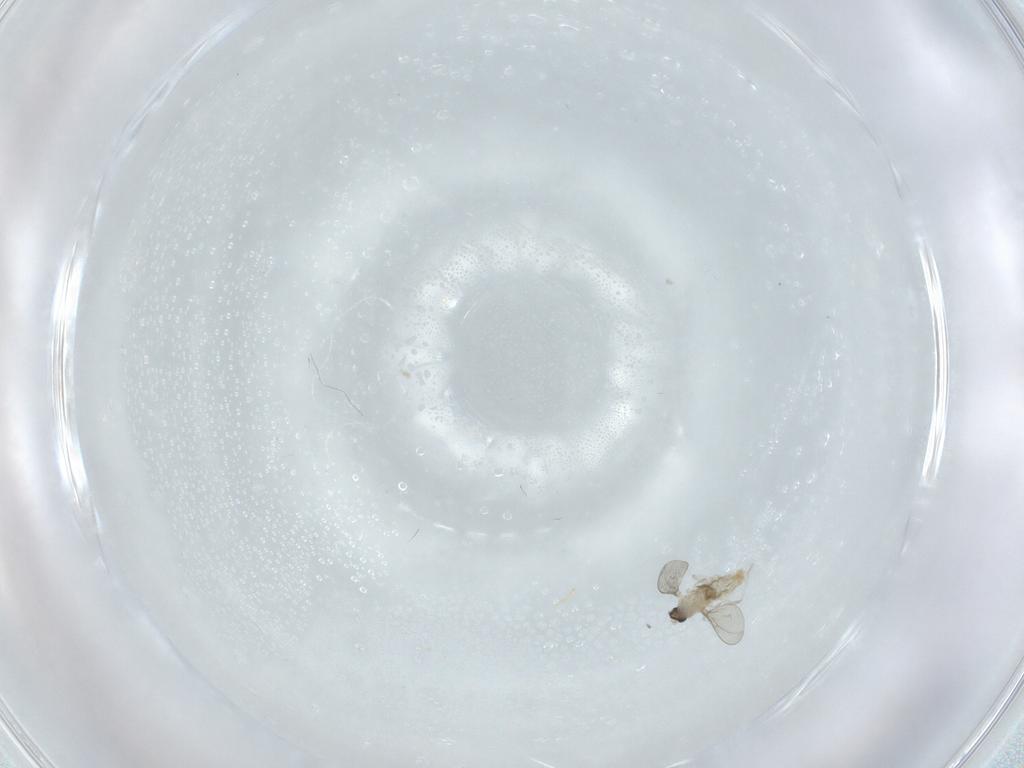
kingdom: Animalia
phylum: Arthropoda
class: Insecta
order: Diptera
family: Cecidomyiidae
